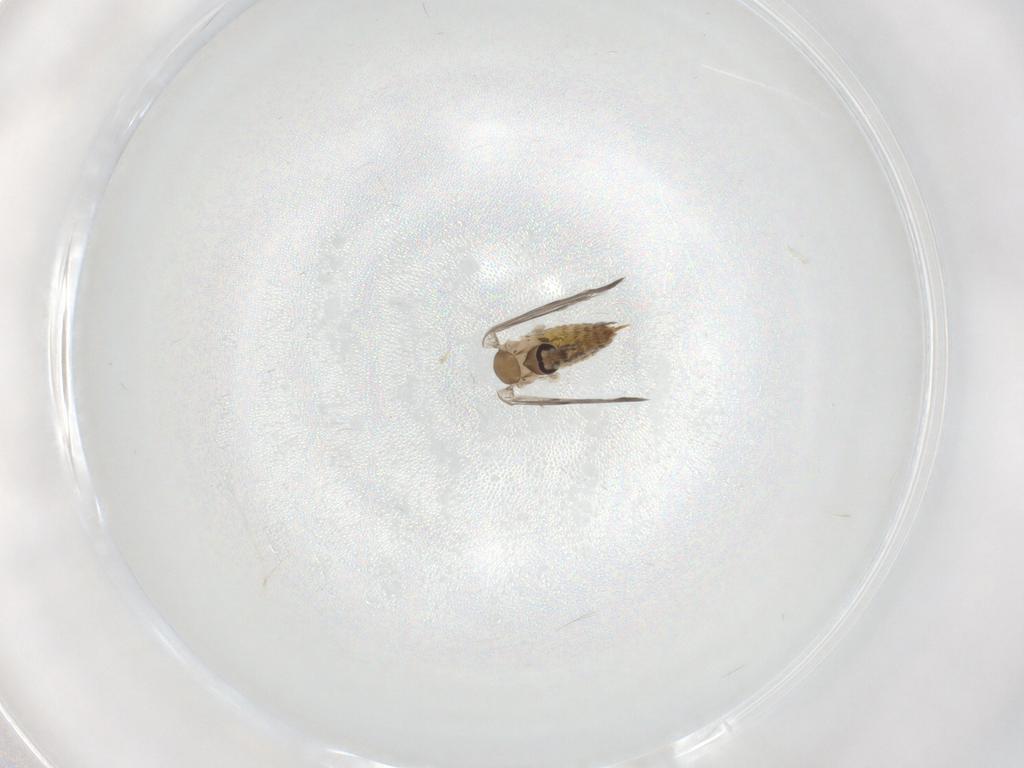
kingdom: Animalia
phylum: Arthropoda
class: Insecta
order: Diptera
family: Psychodidae
